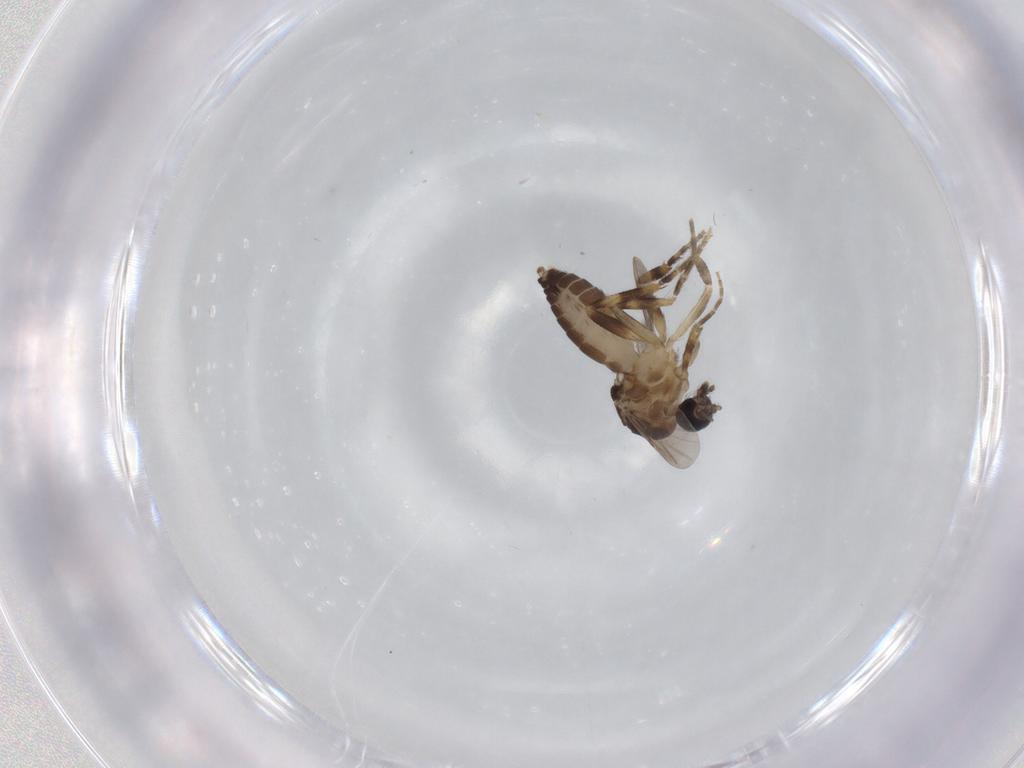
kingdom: Animalia
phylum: Arthropoda
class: Insecta
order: Diptera
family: Ceratopogonidae
